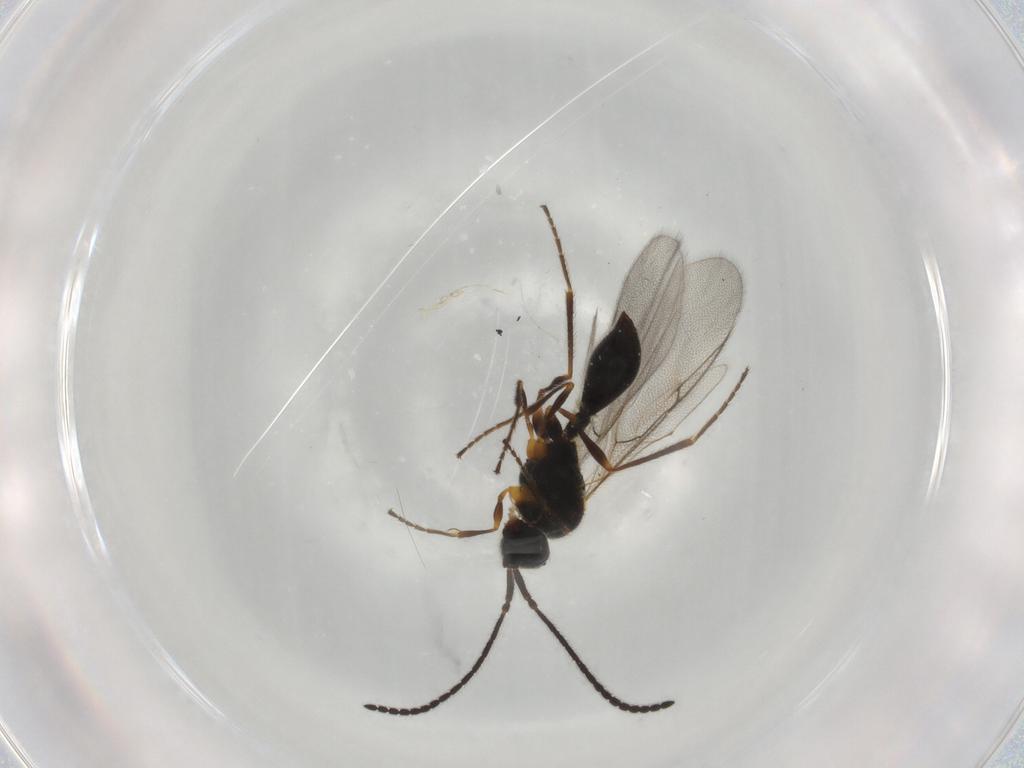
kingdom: Animalia
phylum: Arthropoda
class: Insecta
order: Hymenoptera
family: Diapriidae
